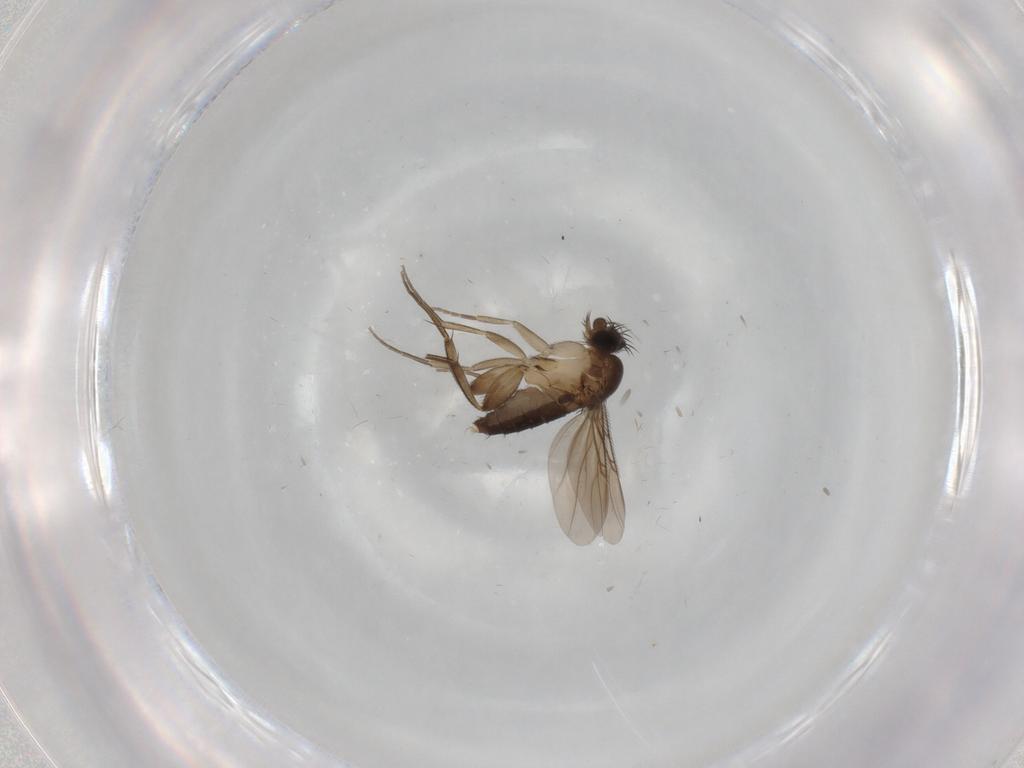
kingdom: Animalia
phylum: Arthropoda
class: Insecta
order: Diptera
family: Phoridae
